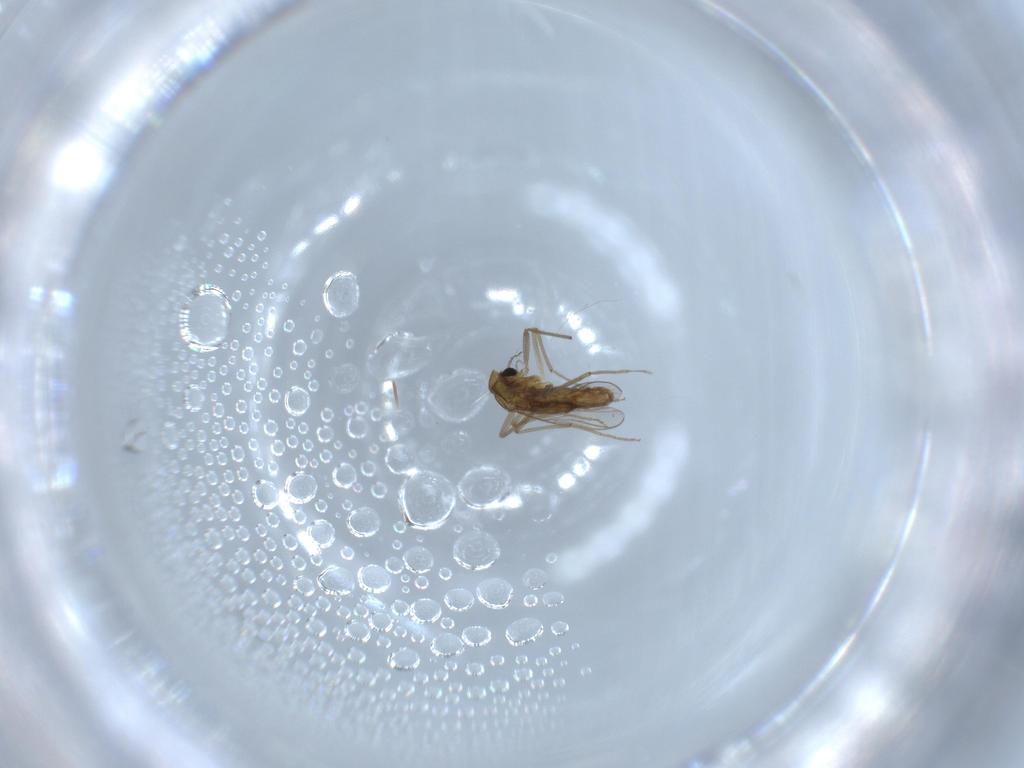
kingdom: Animalia
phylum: Arthropoda
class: Insecta
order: Diptera
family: Chironomidae
